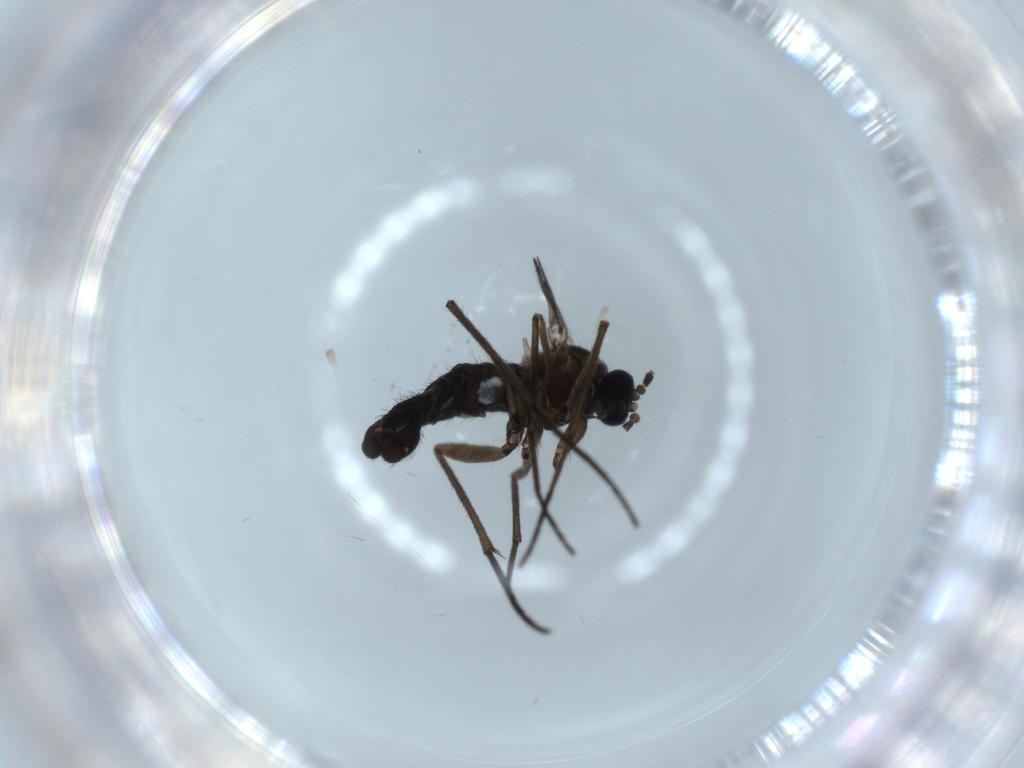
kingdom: Animalia
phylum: Arthropoda
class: Insecta
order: Diptera
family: Sciaridae
